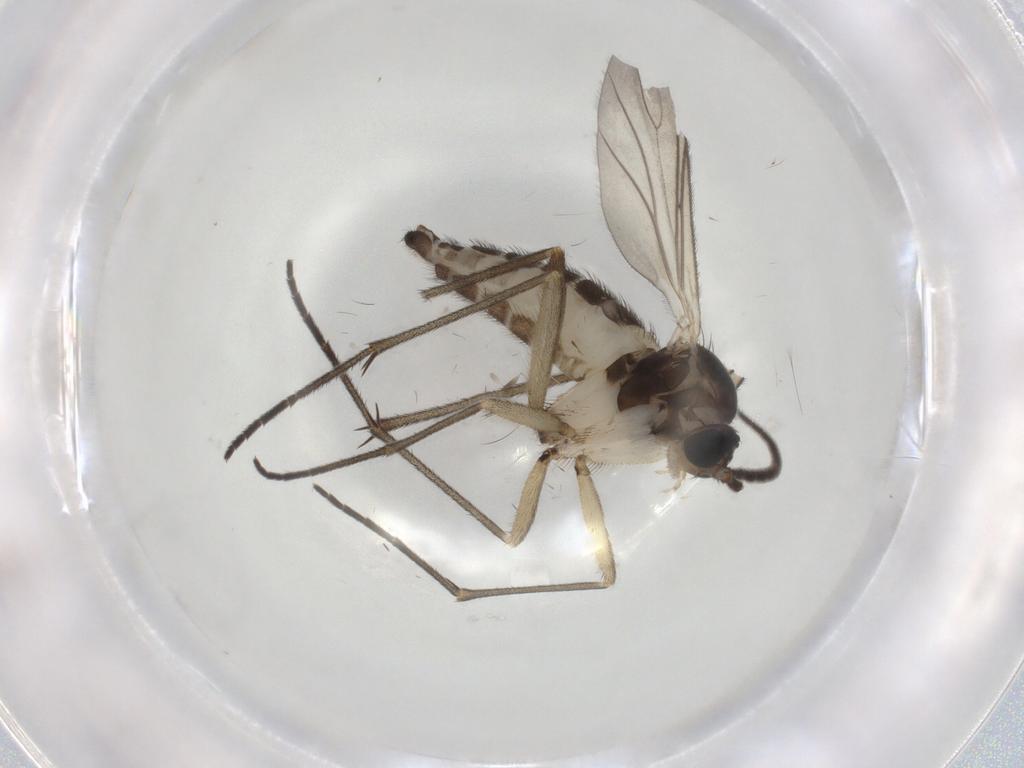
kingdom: Animalia
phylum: Arthropoda
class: Insecta
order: Diptera
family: Sciaridae
